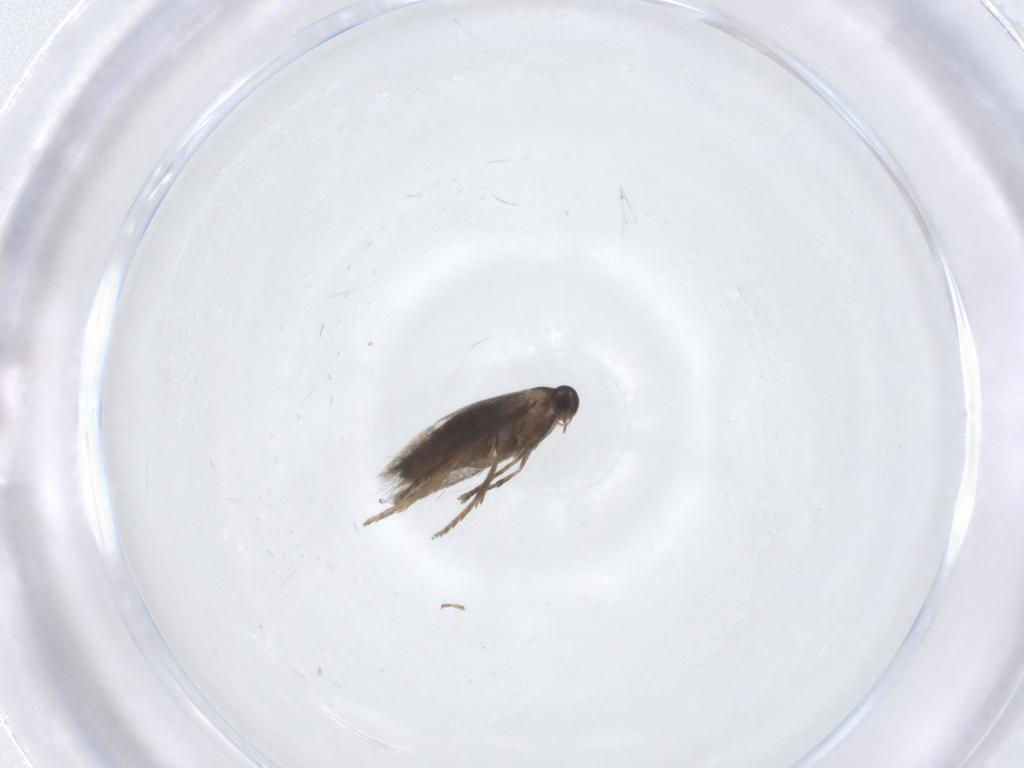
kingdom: Animalia
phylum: Arthropoda
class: Insecta
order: Lepidoptera
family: Heliozelidae
